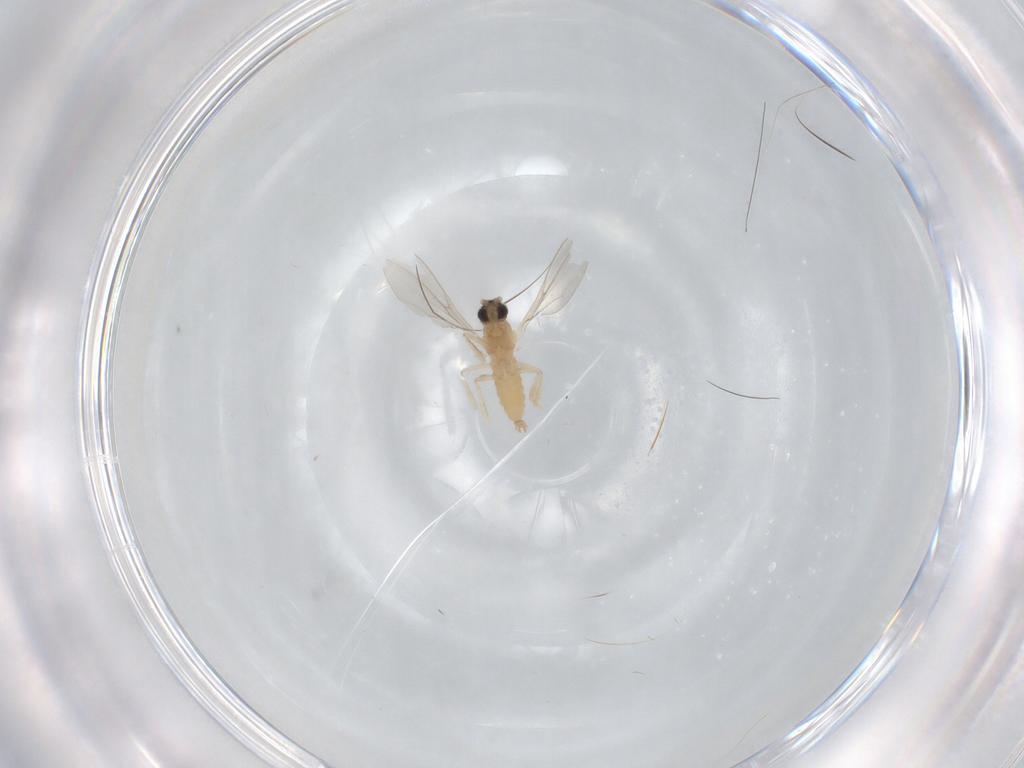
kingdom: Animalia
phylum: Arthropoda
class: Insecta
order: Diptera
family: Cecidomyiidae
